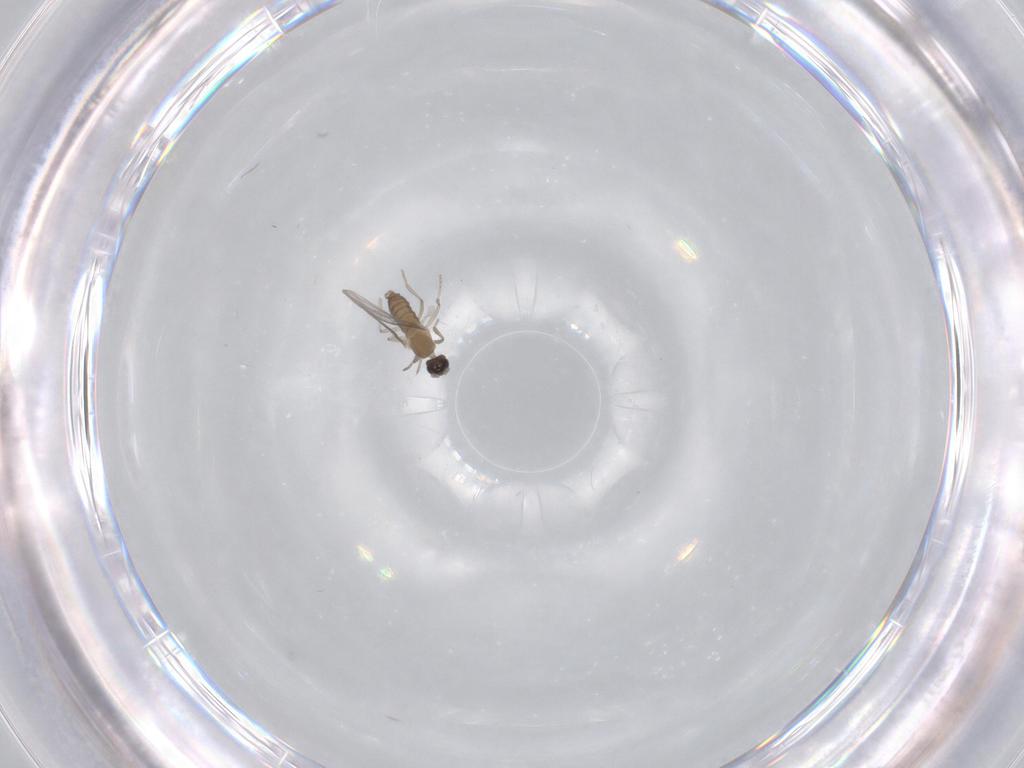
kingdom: Animalia
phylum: Arthropoda
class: Insecta
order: Diptera
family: Cecidomyiidae
